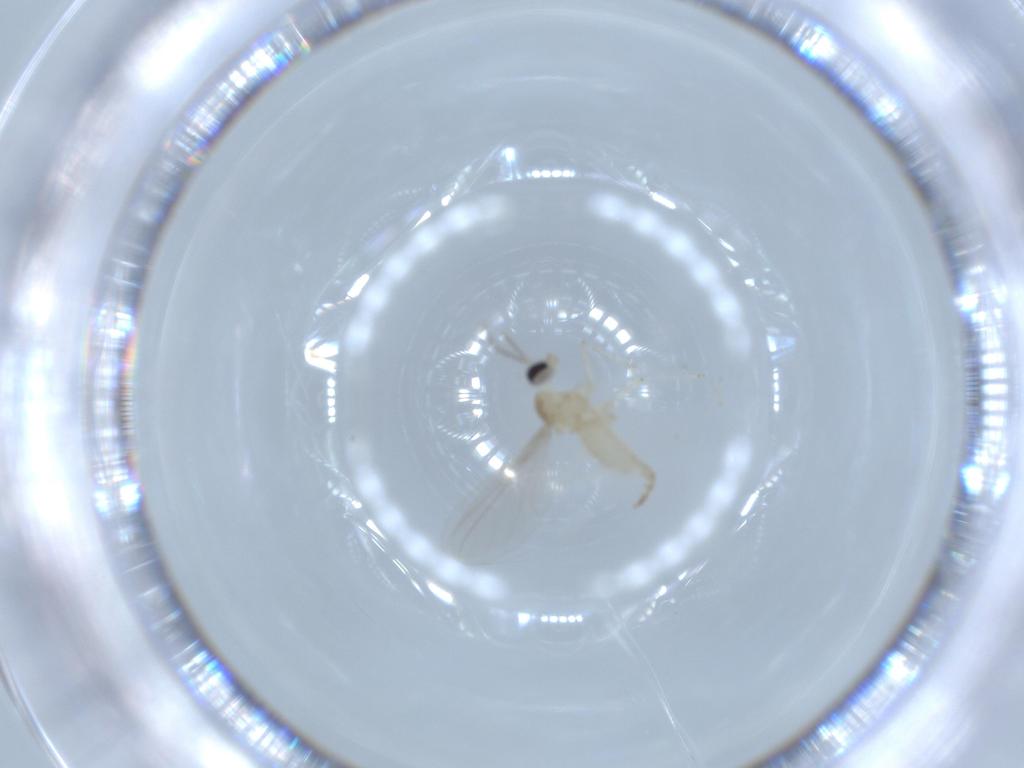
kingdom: Animalia
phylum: Arthropoda
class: Insecta
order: Diptera
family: Cecidomyiidae
